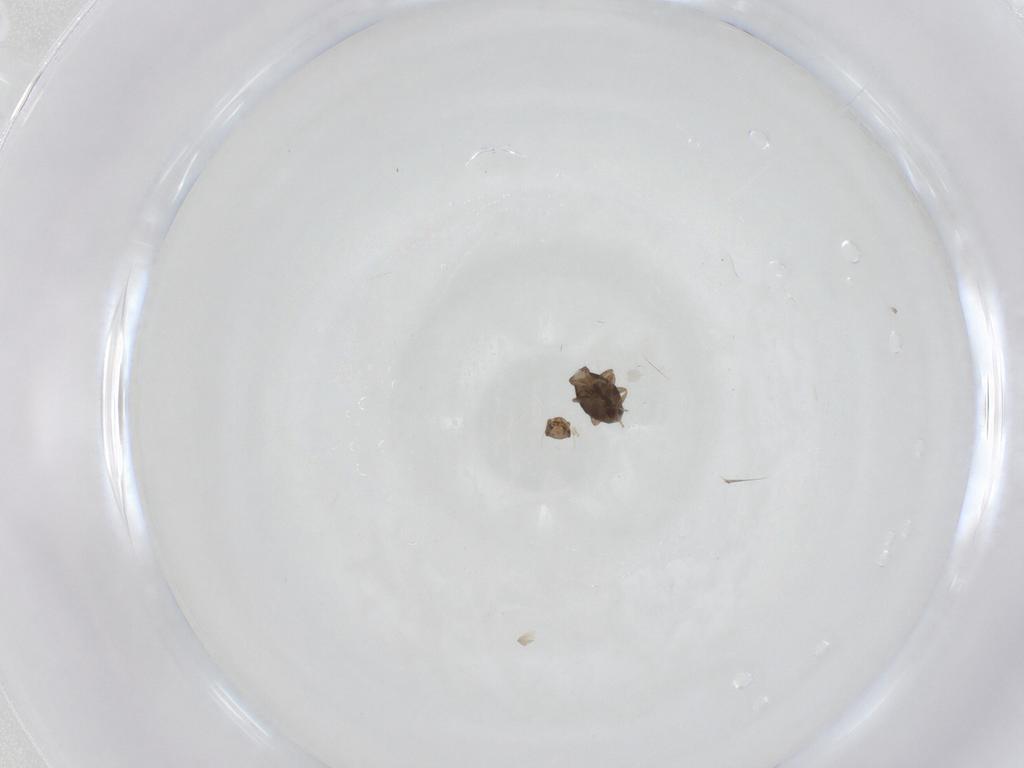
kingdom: Animalia
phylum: Arthropoda
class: Insecta
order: Diptera
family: Phoridae
